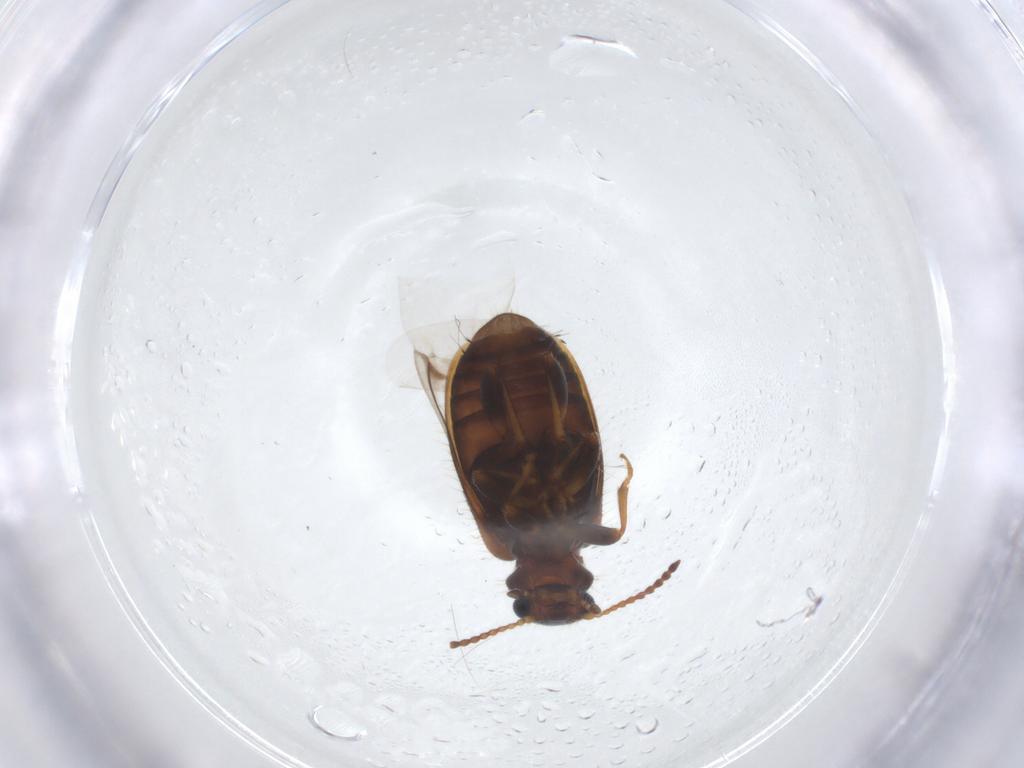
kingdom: Animalia
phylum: Arthropoda
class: Insecta
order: Coleoptera
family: Anthicidae
